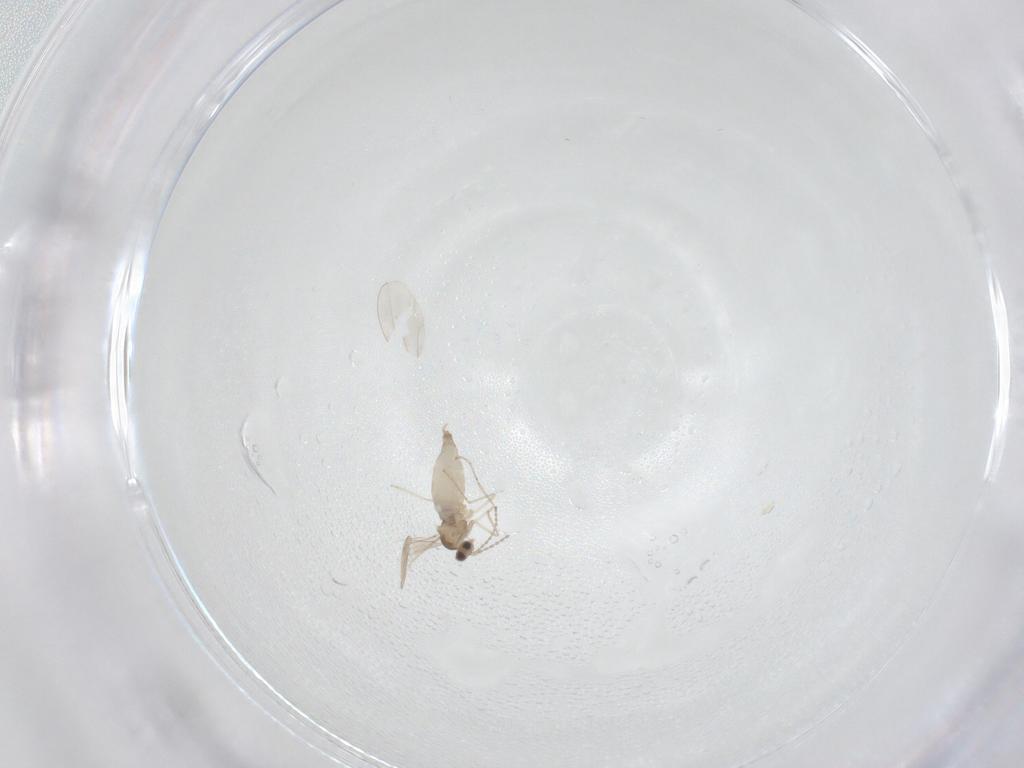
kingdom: Animalia
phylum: Arthropoda
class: Insecta
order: Diptera
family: Cecidomyiidae
